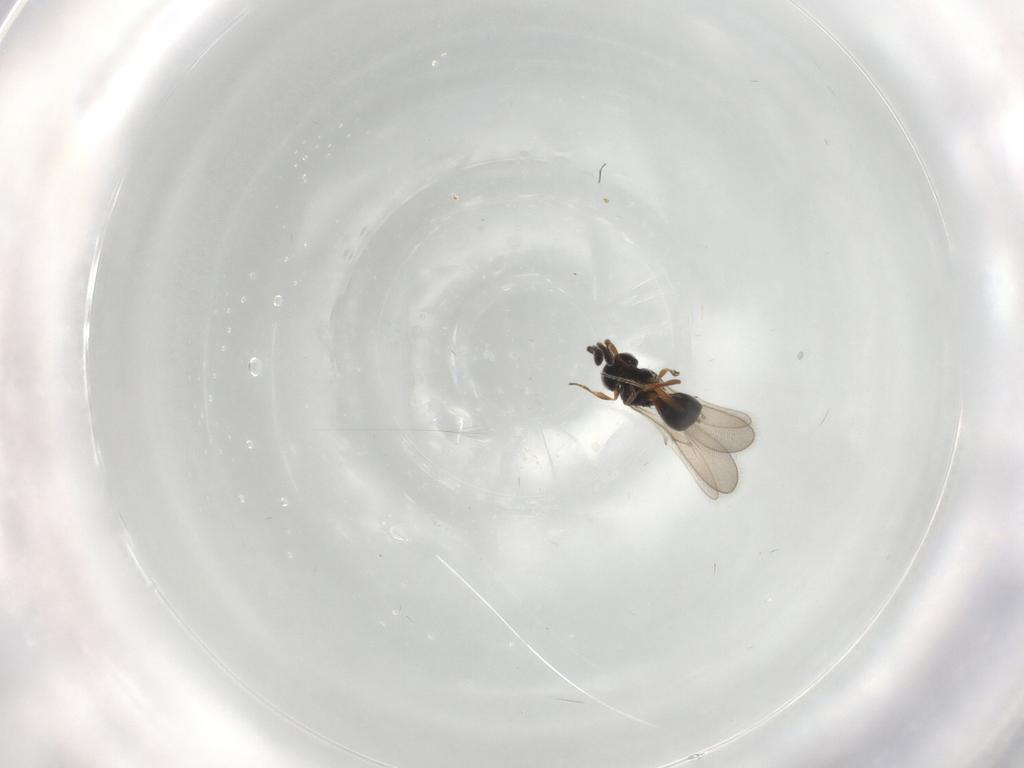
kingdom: Animalia
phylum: Arthropoda
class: Insecta
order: Hymenoptera
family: Scelionidae
